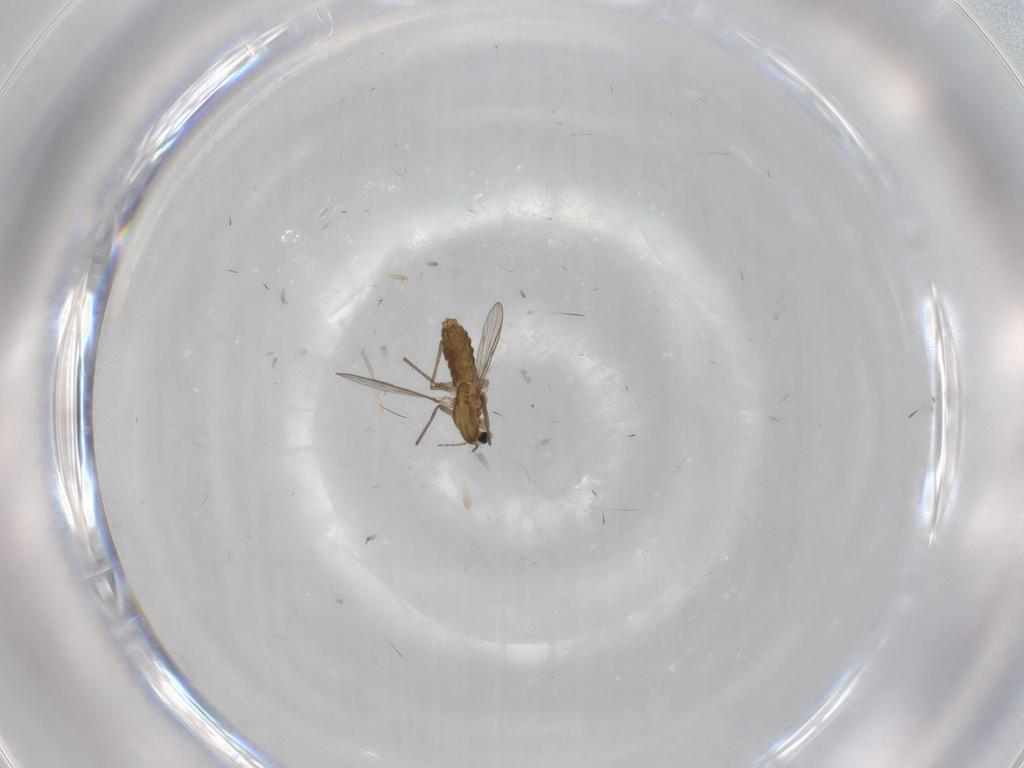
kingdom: Animalia
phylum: Arthropoda
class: Insecta
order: Diptera
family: Chironomidae
